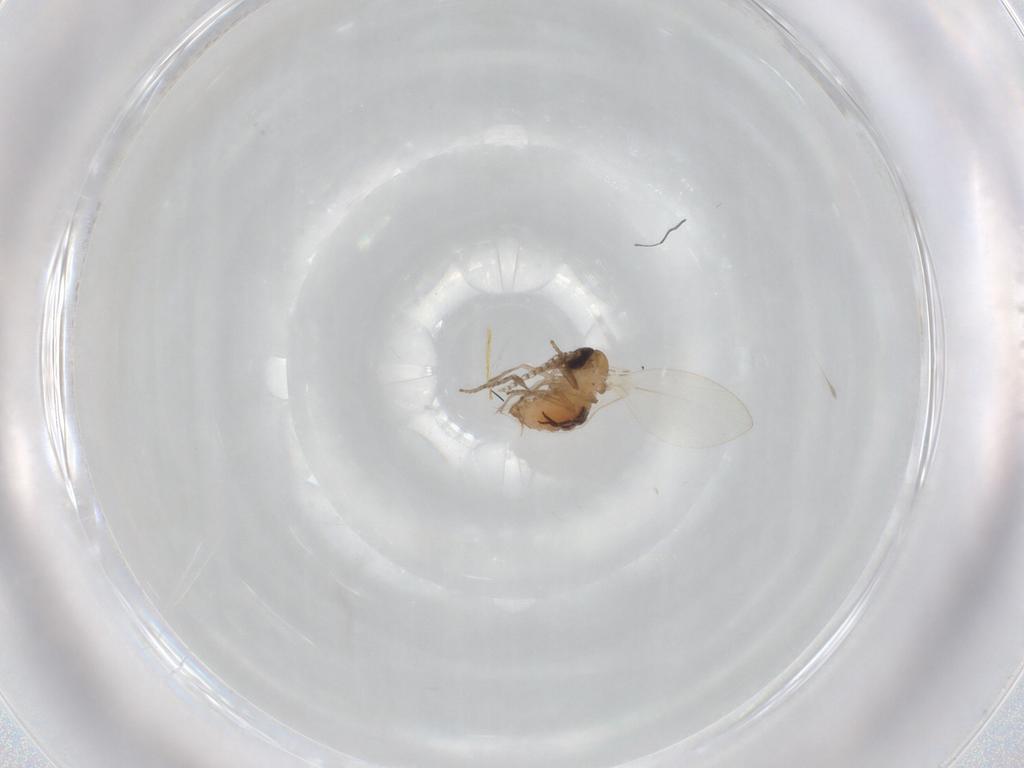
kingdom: Animalia
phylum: Arthropoda
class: Insecta
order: Diptera
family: Psychodidae
